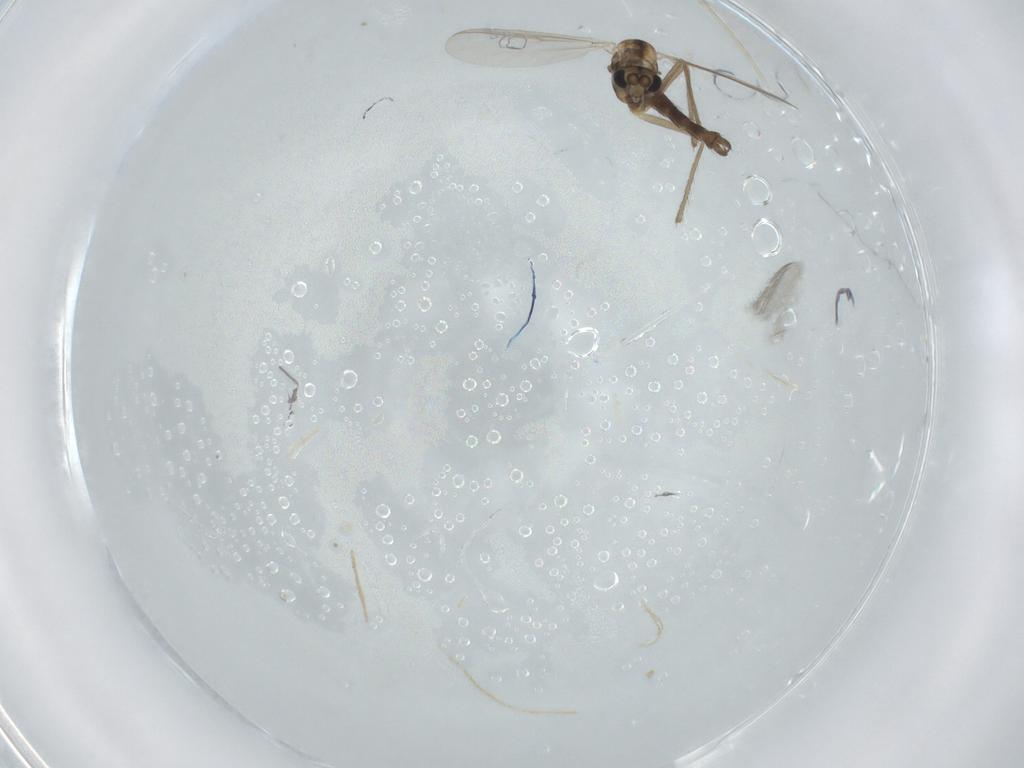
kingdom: Animalia
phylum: Arthropoda
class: Insecta
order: Diptera
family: Chironomidae
